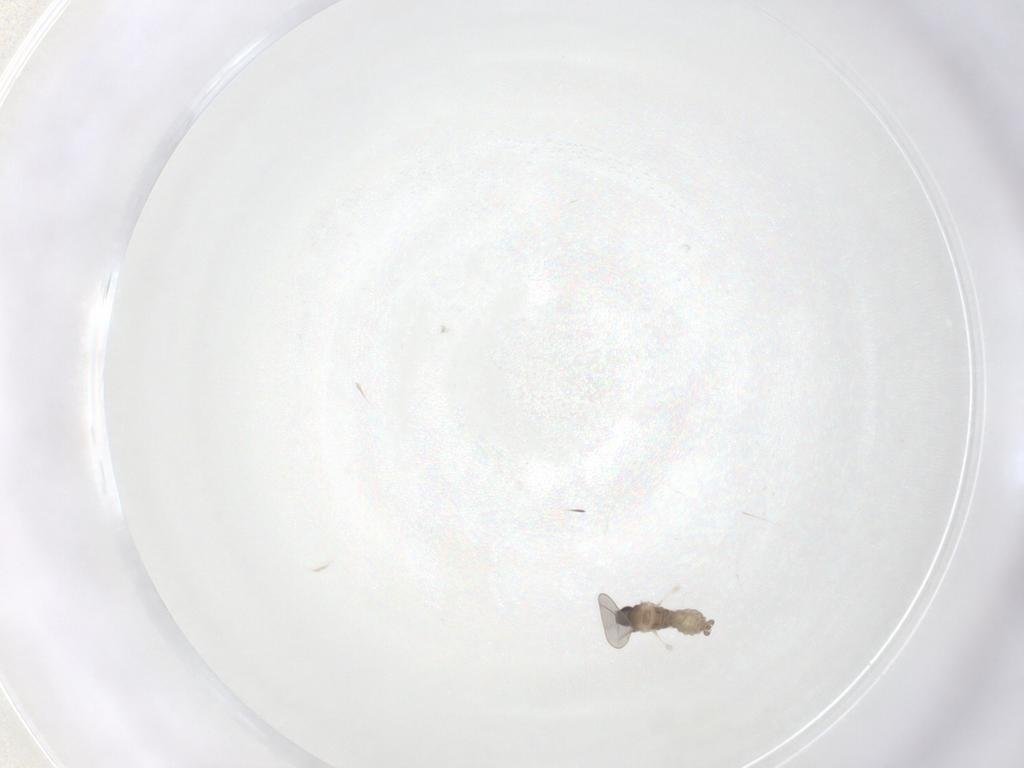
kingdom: Animalia
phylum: Arthropoda
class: Insecta
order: Diptera
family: Cecidomyiidae
